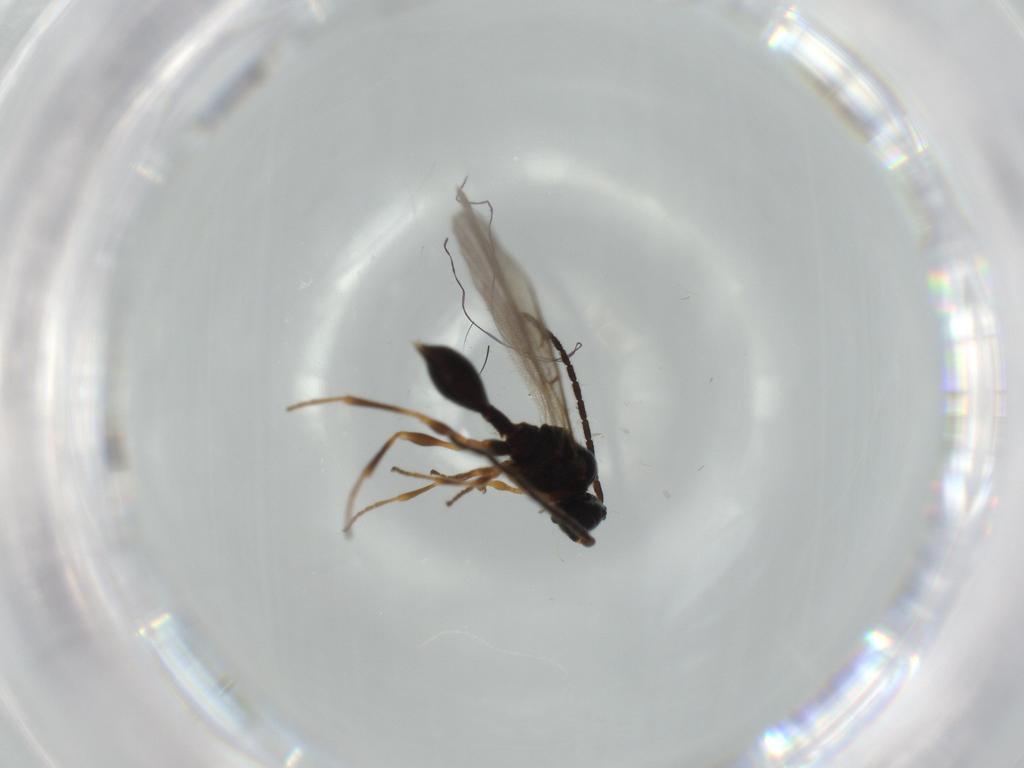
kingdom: Animalia
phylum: Arthropoda
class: Insecta
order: Hymenoptera
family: Diapriidae
